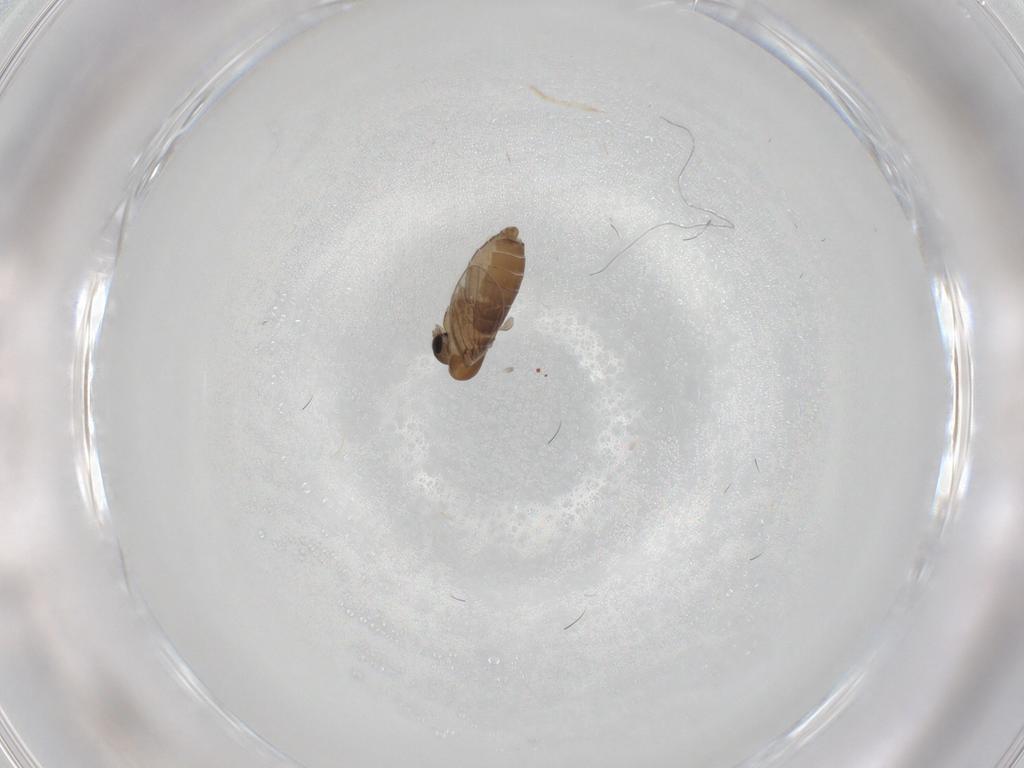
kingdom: Animalia
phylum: Arthropoda
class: Insecta
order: Diptera
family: Psychodidae
